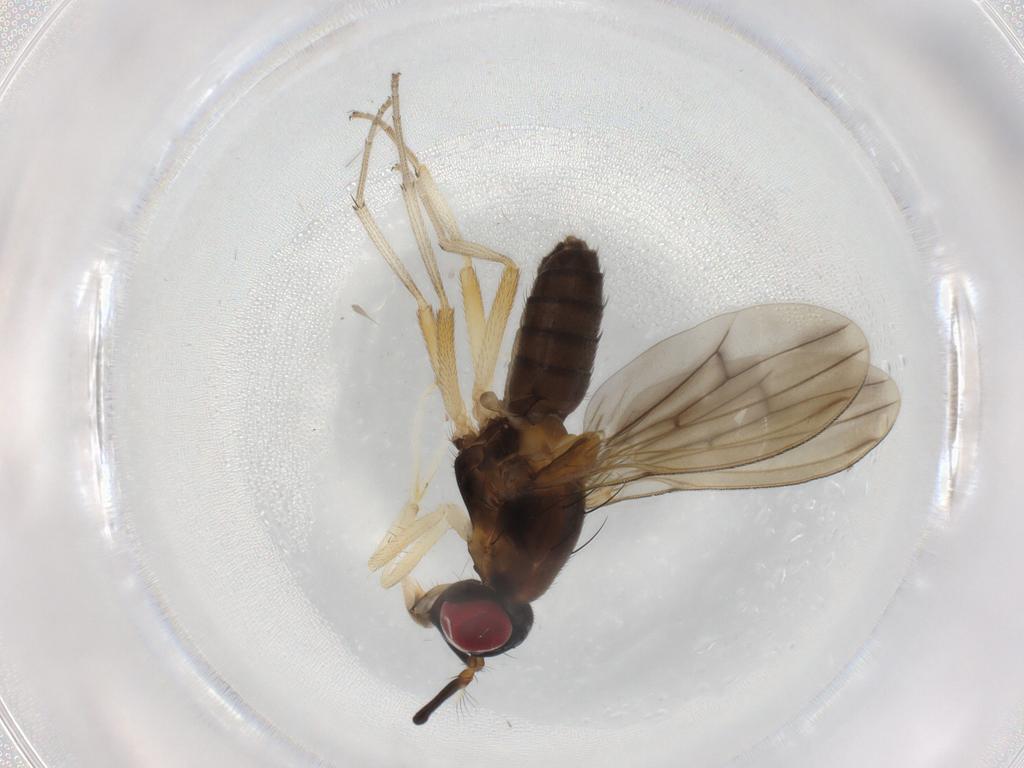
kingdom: Animalia
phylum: Arthropoda
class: Insecta
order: Diptera
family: Lauxaniidae
